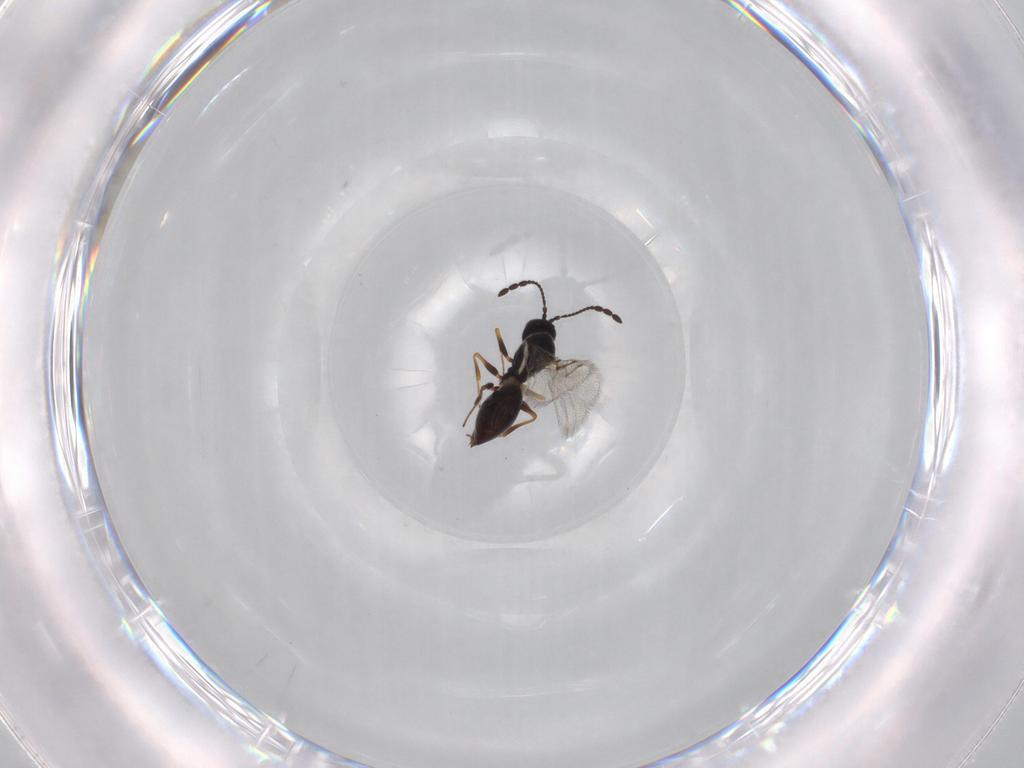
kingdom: Animalia
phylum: Arthropoda
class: Insecta
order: Hymenoptera
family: Figitidae
